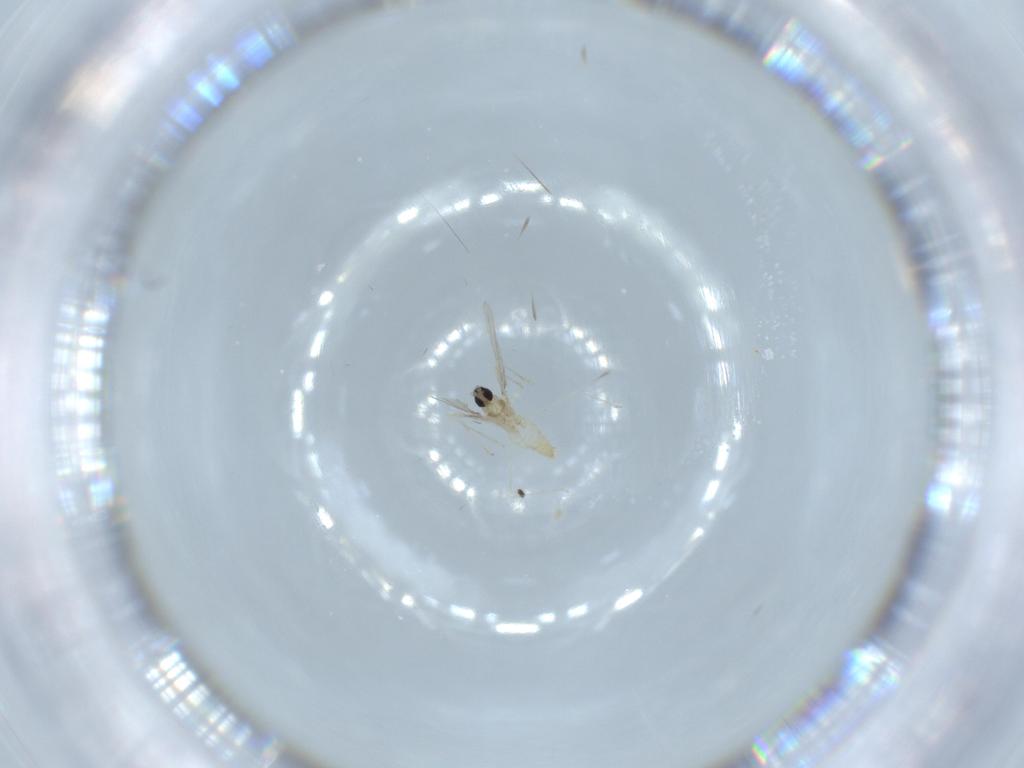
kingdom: Animalia
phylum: Arthropoda
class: Insecta
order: Diptera
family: Cecidomyiidae
